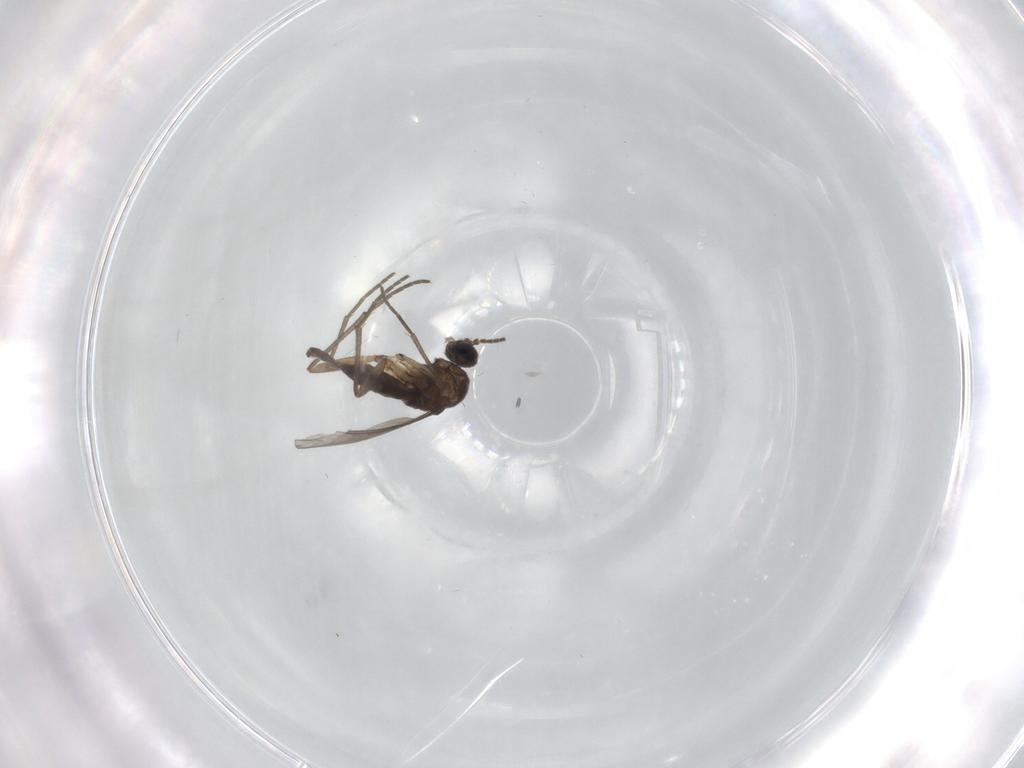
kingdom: Animalia
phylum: Arthropoda
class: Insecta
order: Diptera
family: Sciaridae
